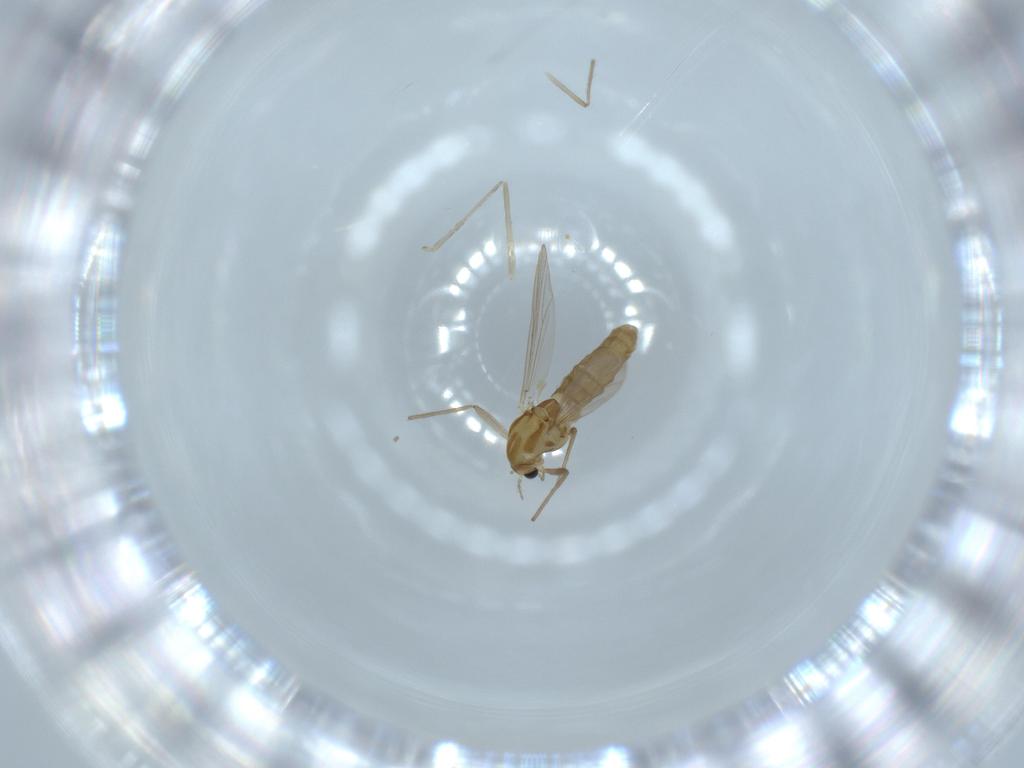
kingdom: Animalia
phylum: Arthropoda
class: Insecta
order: Diptera
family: Chironomidae
